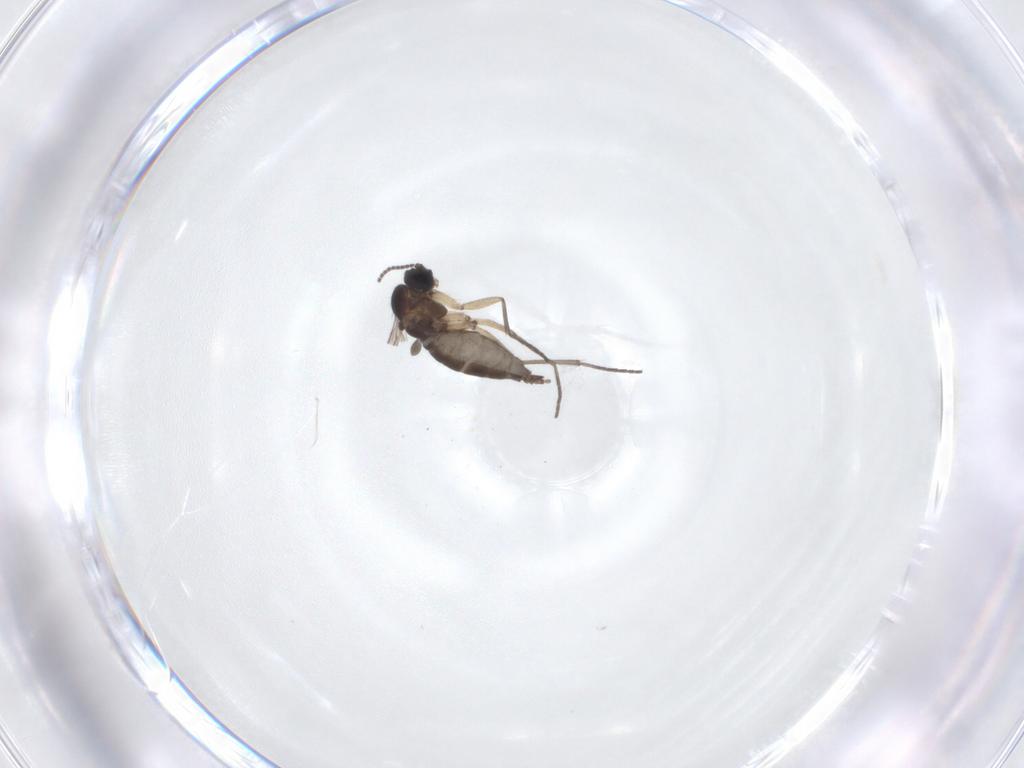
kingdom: Animalia
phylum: Arthropoda
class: Insecta
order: Diptera
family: Sciaridae
